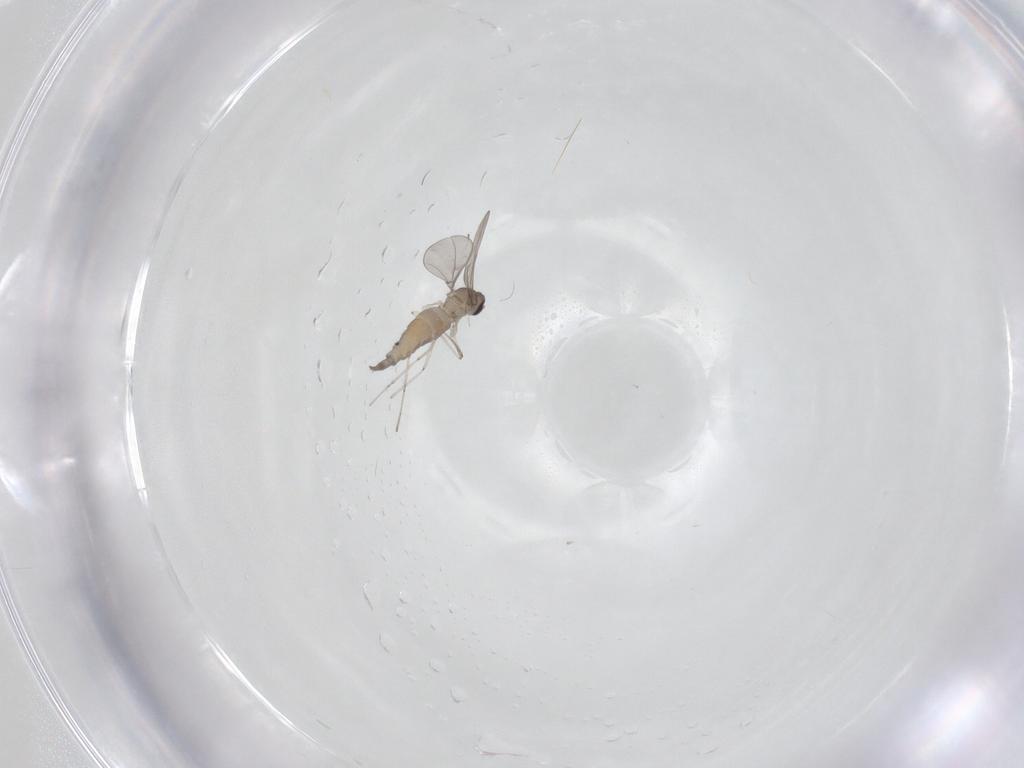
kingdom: Animalia
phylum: Arthropoda
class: Insecta
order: Diptera
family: Cecidomyiidae
